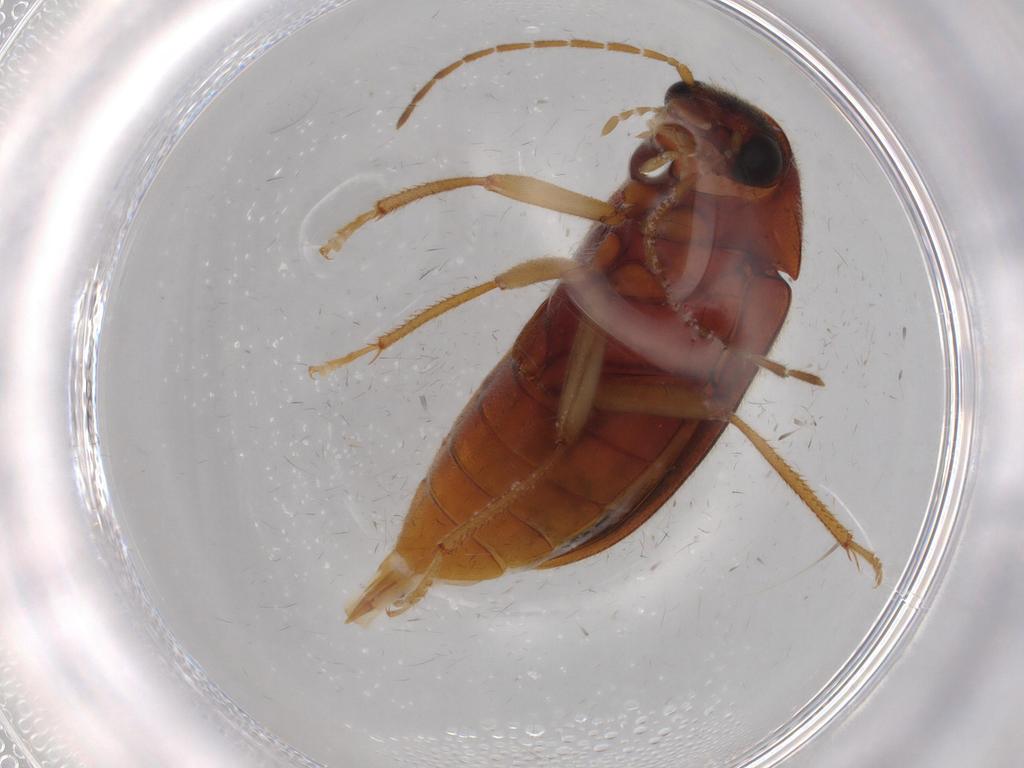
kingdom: Animalia
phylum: Arthropoda
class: Insecta
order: Coleoptera
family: Ptilodactylidae
